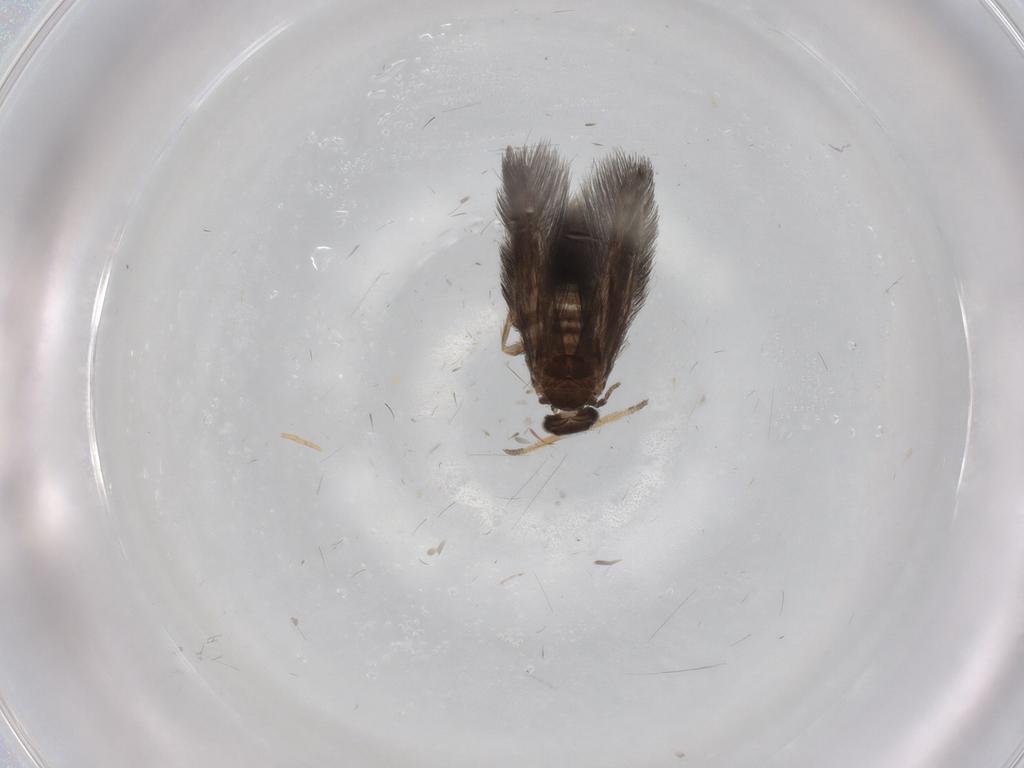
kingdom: Animalia
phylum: Arthropoda
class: Insecta
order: Trichoptera
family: Hydroptilidae
